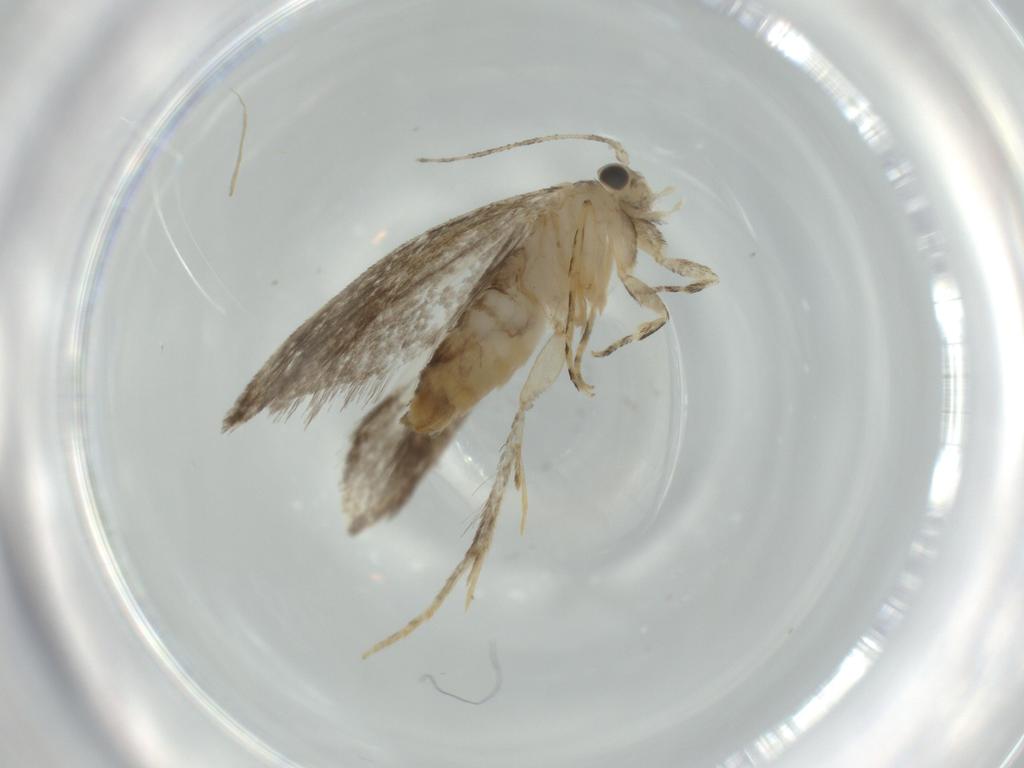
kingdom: Animalia
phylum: Arthropoda
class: Insecta
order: Lepidoptera
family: Tineidae
